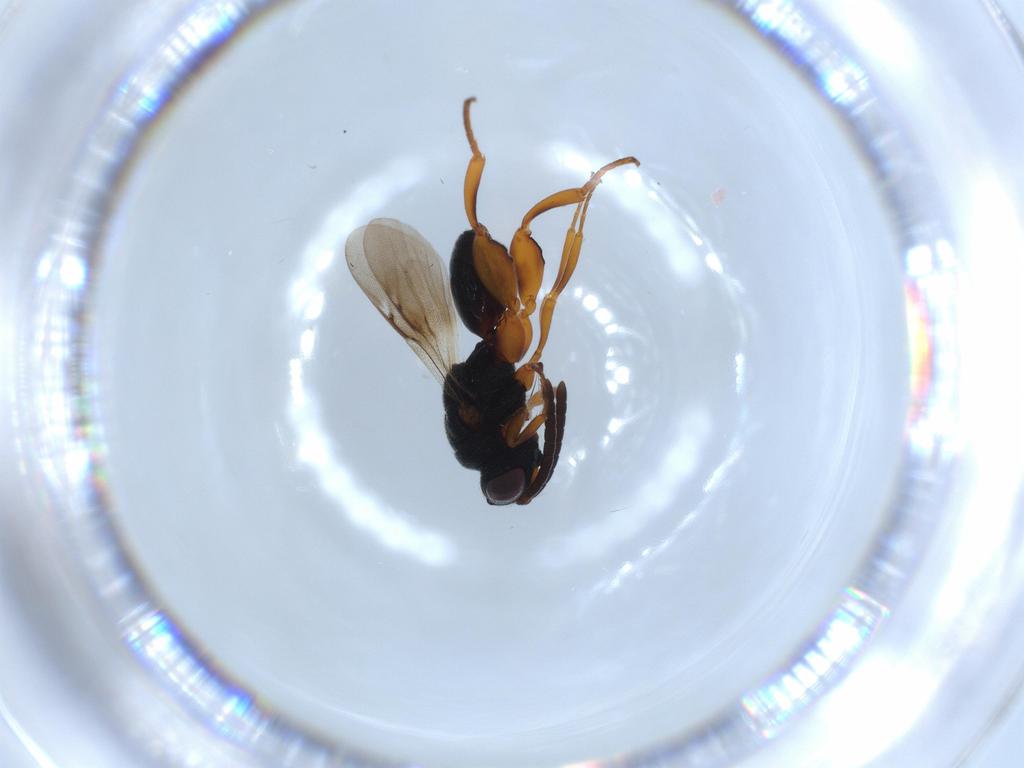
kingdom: Animalia
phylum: Arthropoda
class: Insecta
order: Hymenoptera
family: Chalcididae
